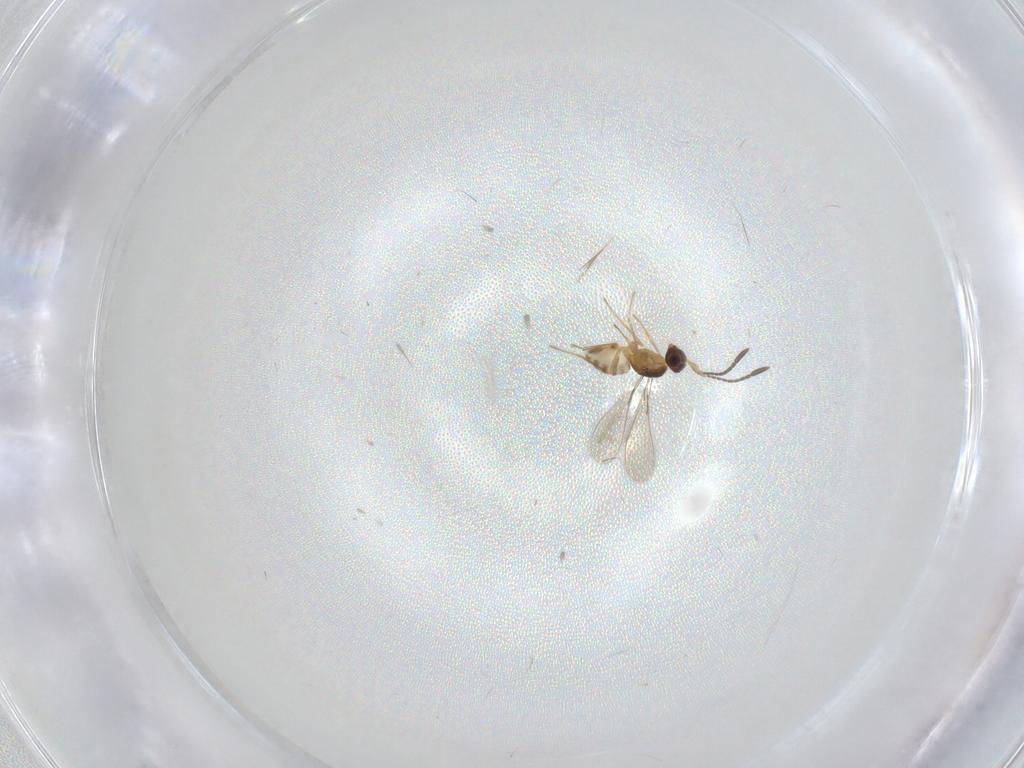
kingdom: Animalia
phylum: Arthropoda
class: Insecta
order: Hymenoptera
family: Mymaridae
